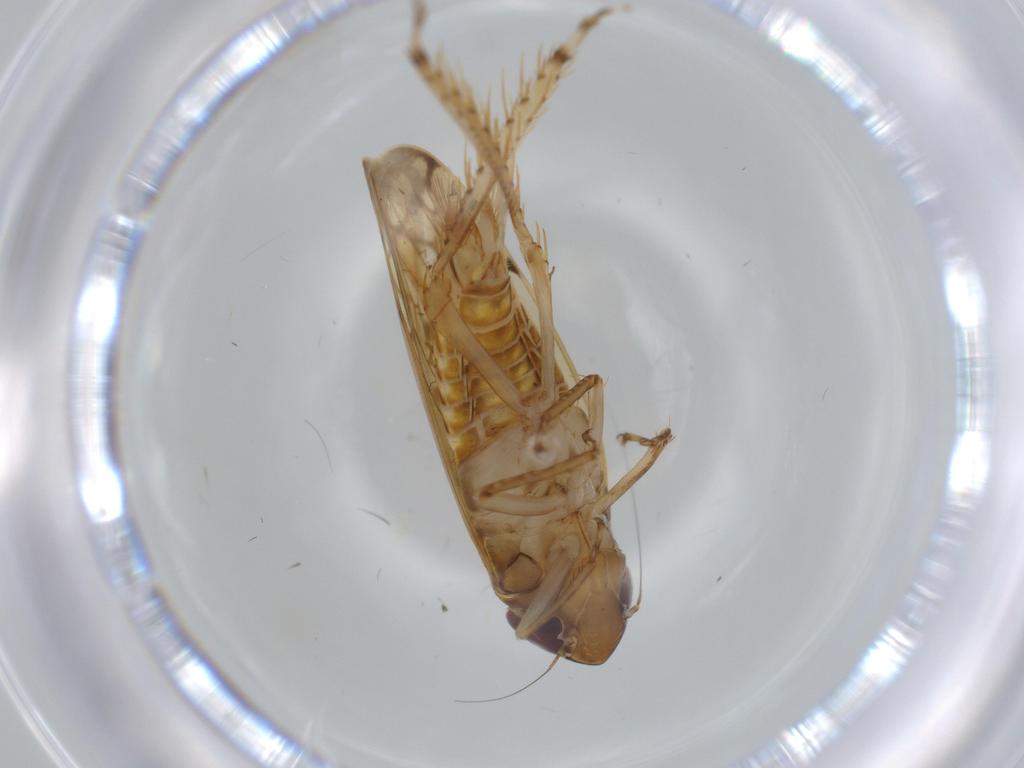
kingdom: Animalia
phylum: Arthropoda
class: Insecta
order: Hemiptera
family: Cicadellidae
